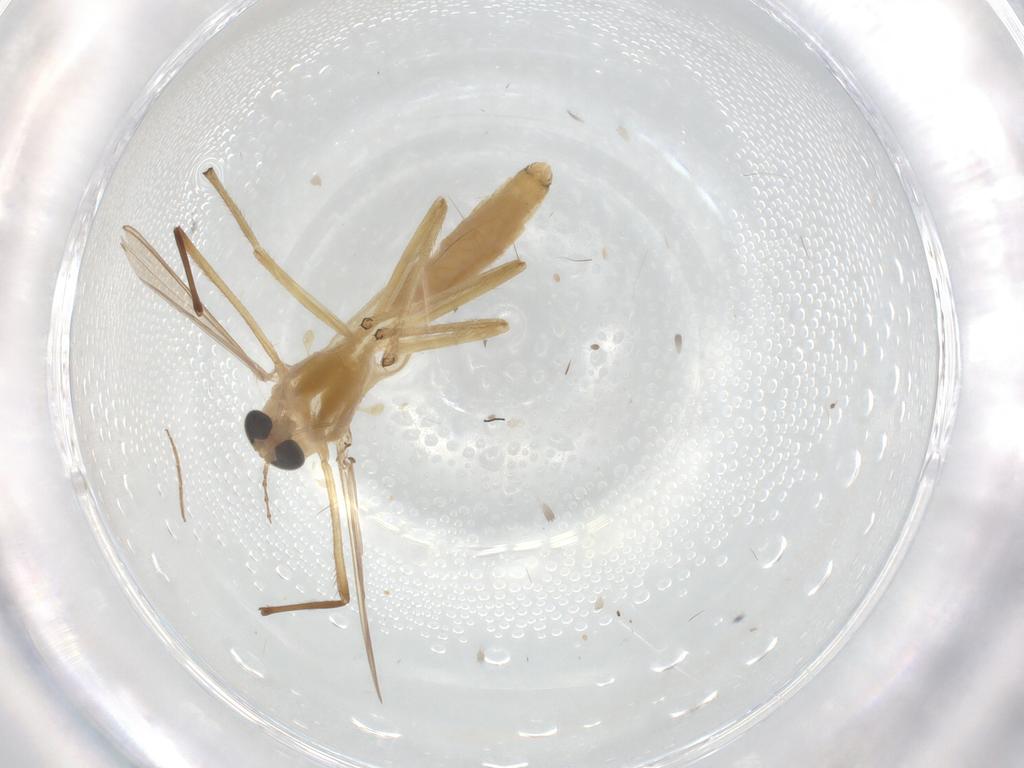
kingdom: Animalia
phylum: Arthropoda
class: Insecta
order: Diptera
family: Chironomidae
